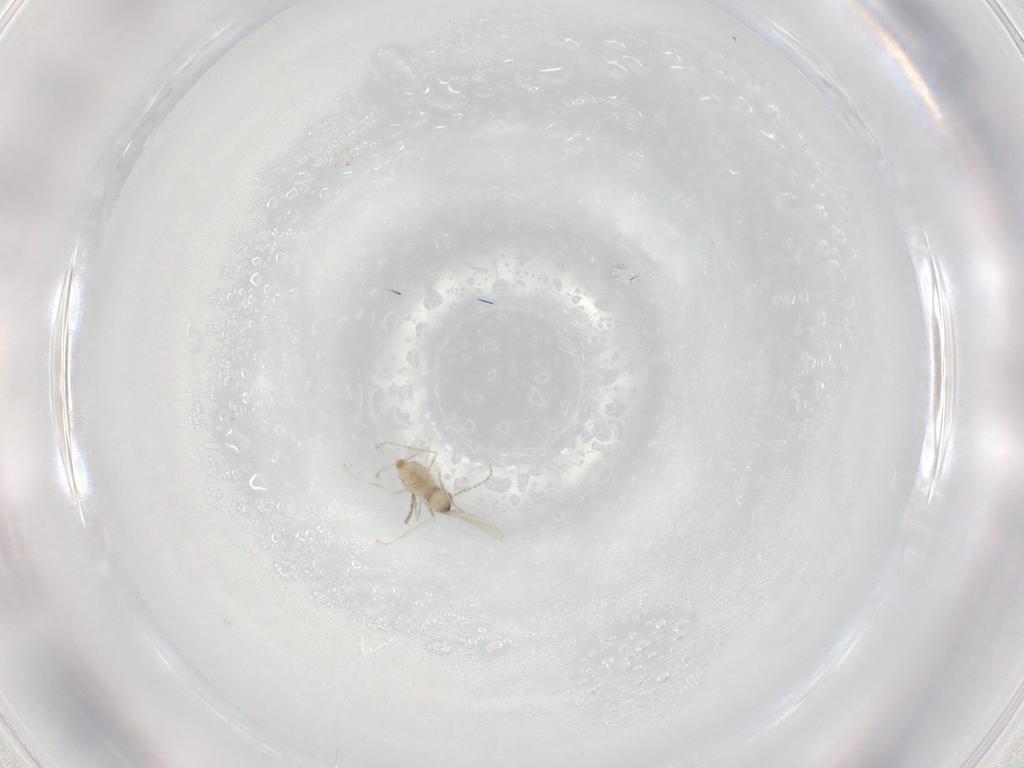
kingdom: Animalia
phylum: Arthropoda
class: Insecta
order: Diptera
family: Cecidomyiidae
